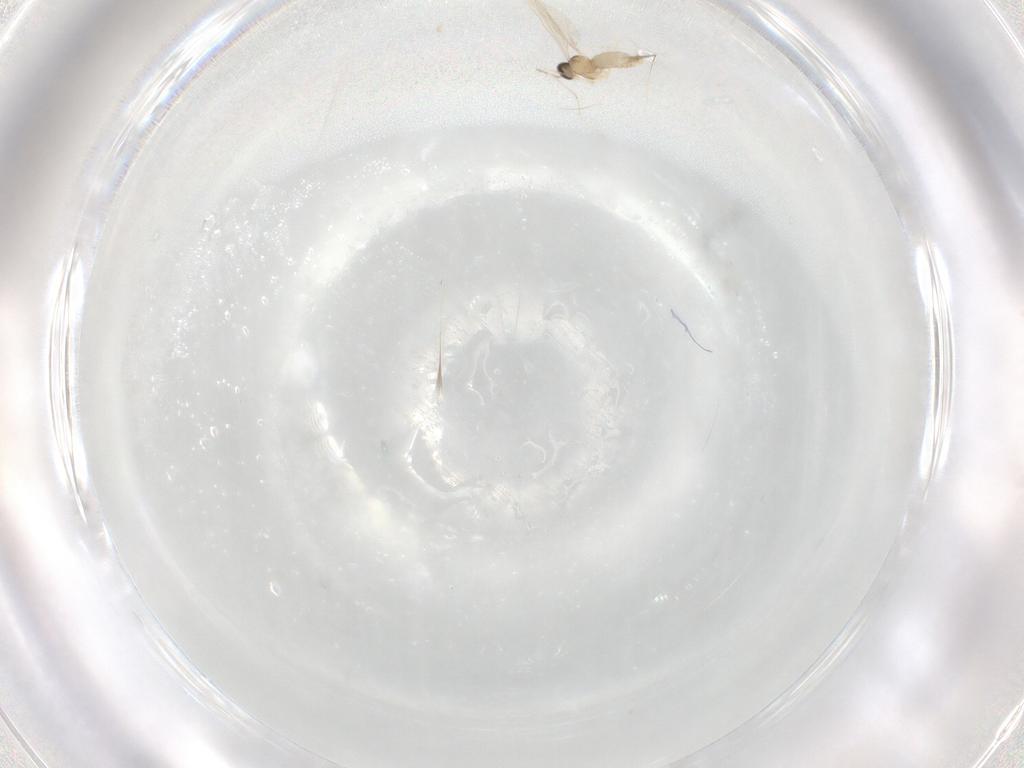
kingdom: Animalia
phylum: Arthropoda
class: Insecta
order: Diptera
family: Cecidomyiidae
